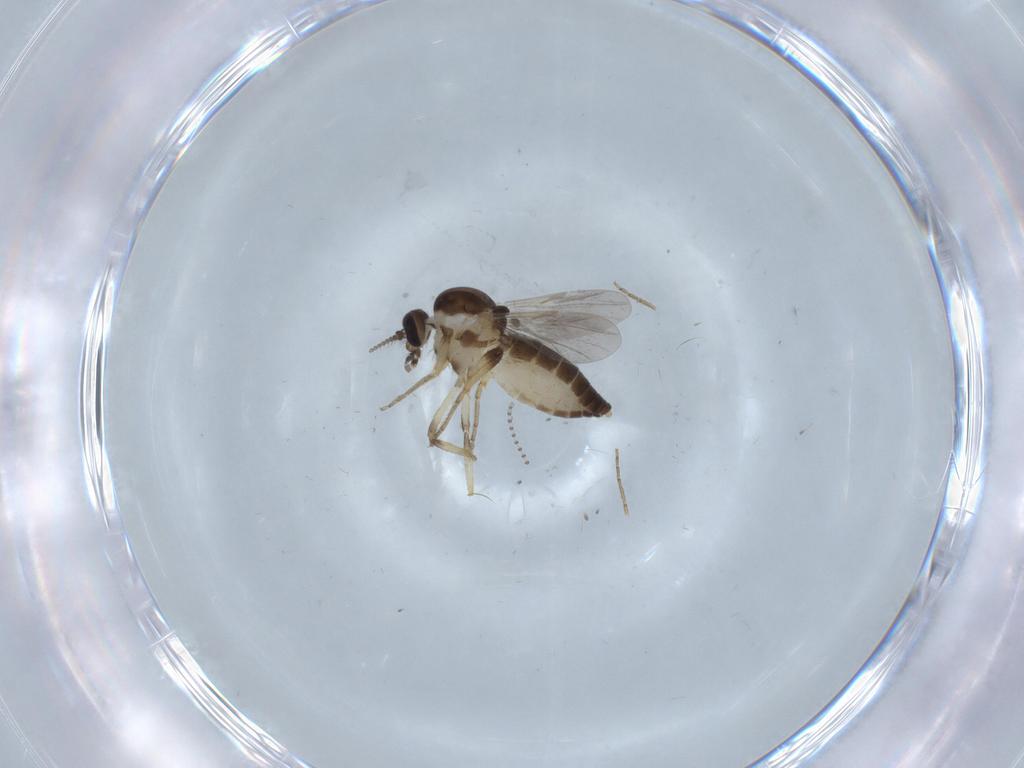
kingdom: Animalia
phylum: Arthropoda
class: Insecta
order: Diptera
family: Ceratopogonidae
